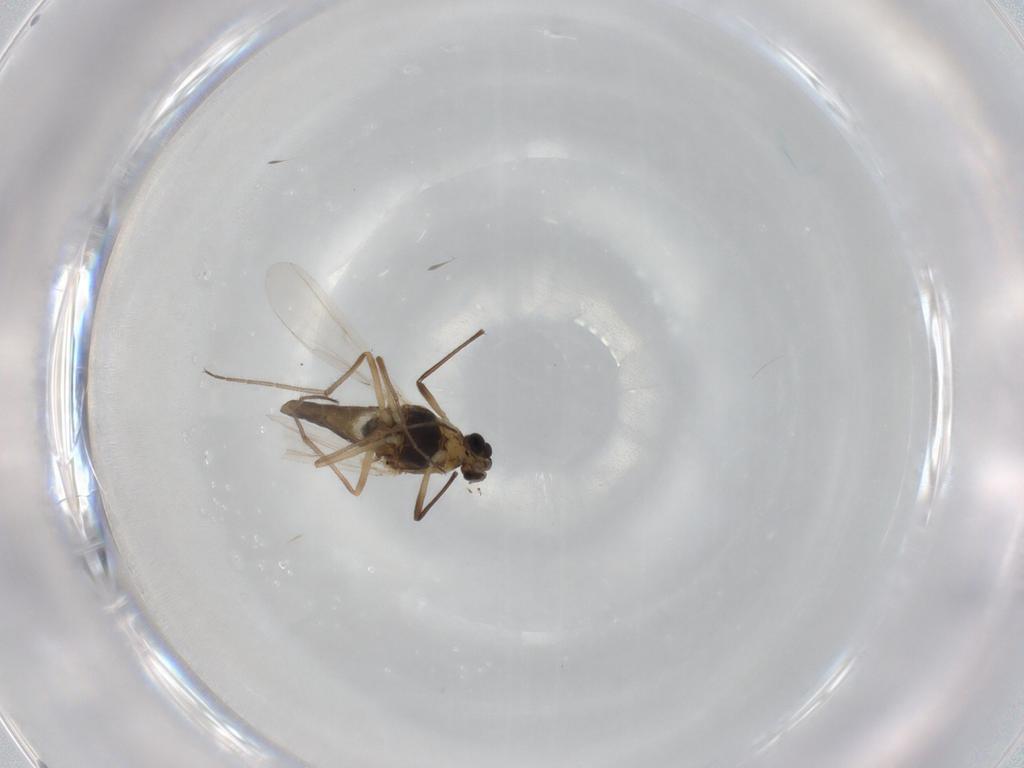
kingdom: Animalia
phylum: Arthropoda
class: Insecta
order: Diptera
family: Chironomidae
